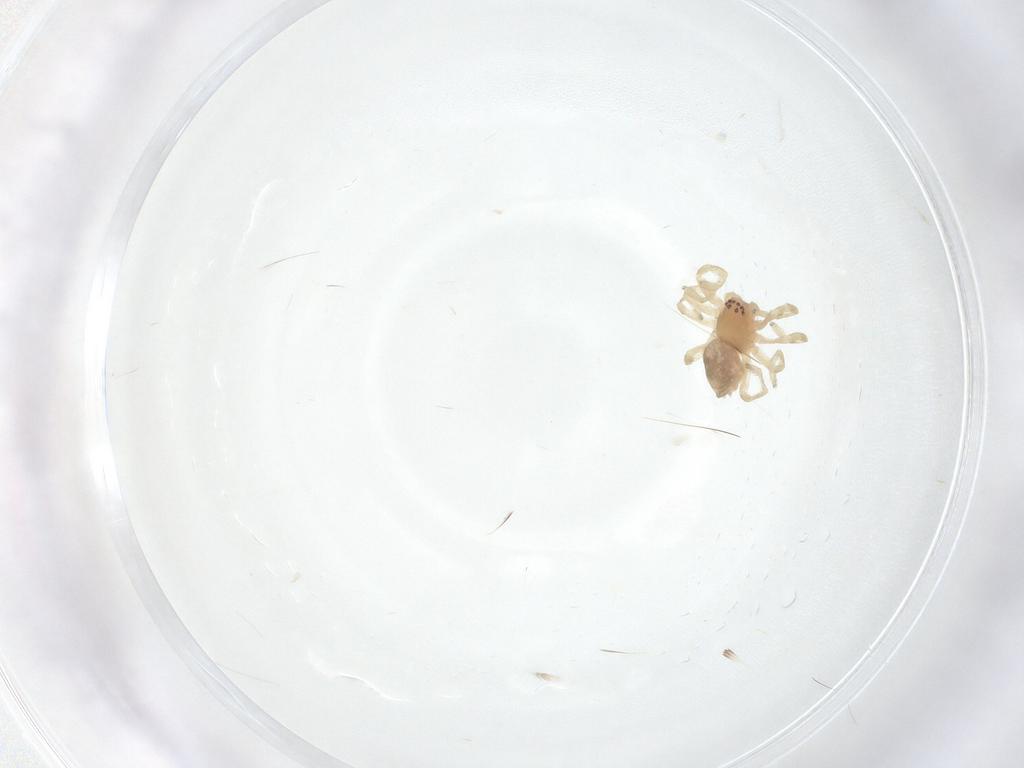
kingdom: Animalia
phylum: Arthropoda
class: Arachnida
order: Araneae
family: Dictynidae
